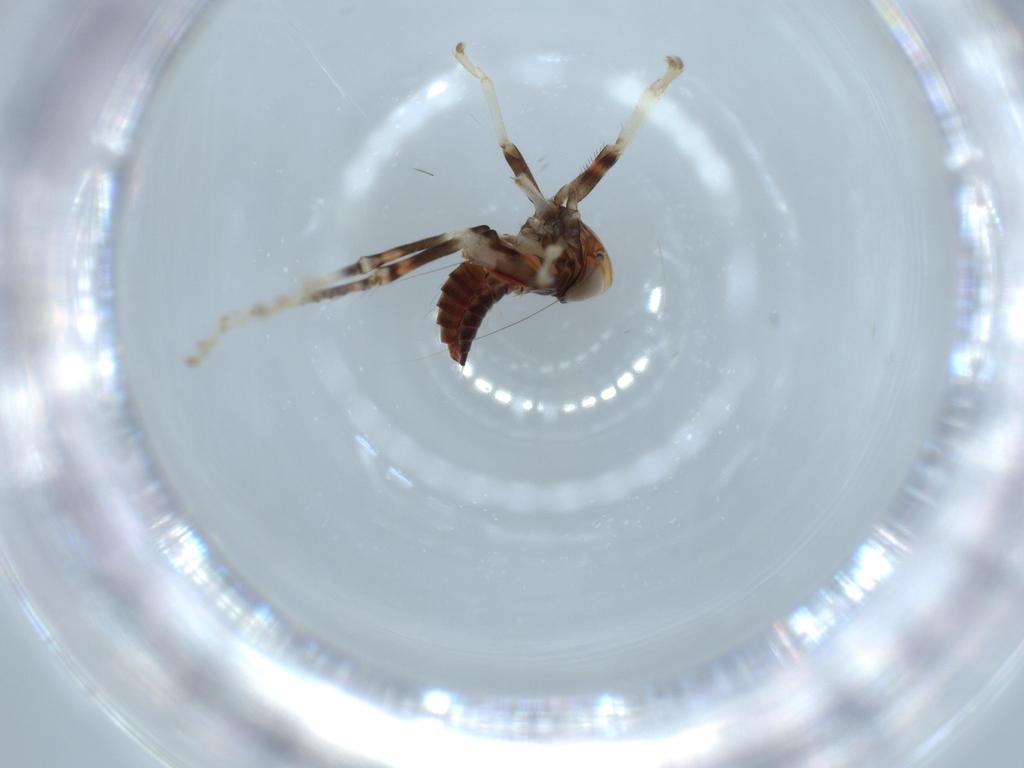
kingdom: Animalia
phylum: Arthropoda
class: Insecta
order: Hemiptera
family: Cicadellidae
